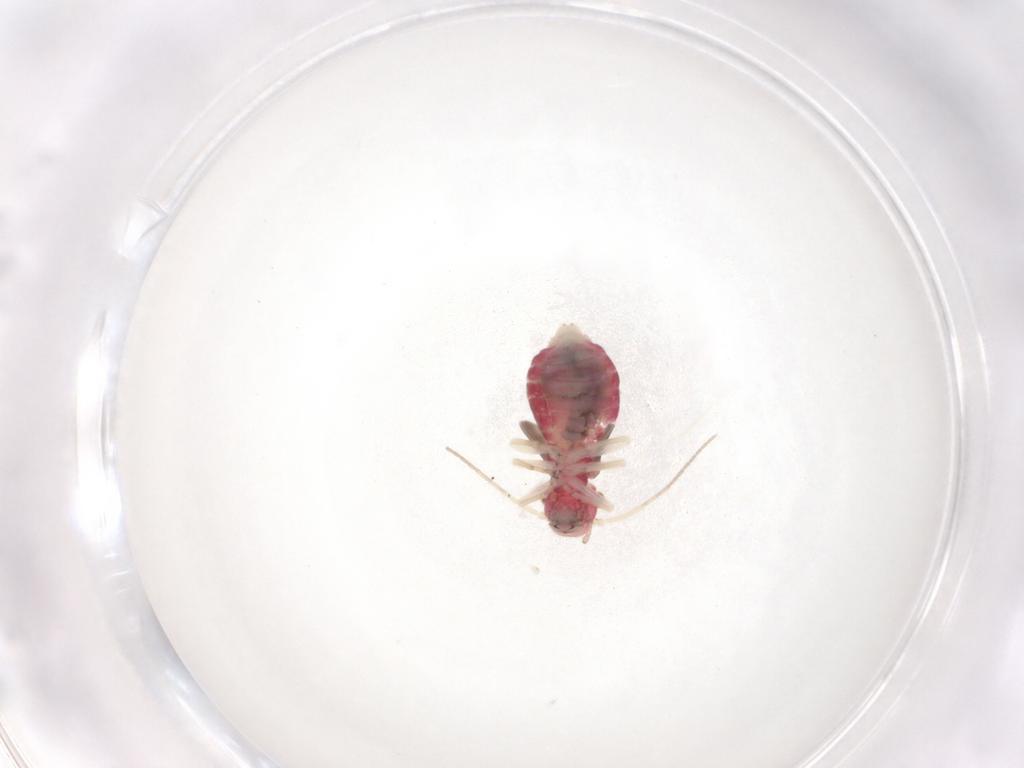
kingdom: Animalia
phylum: Arthropoda
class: Insecta
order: Psocodea
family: Caeciliusidae
